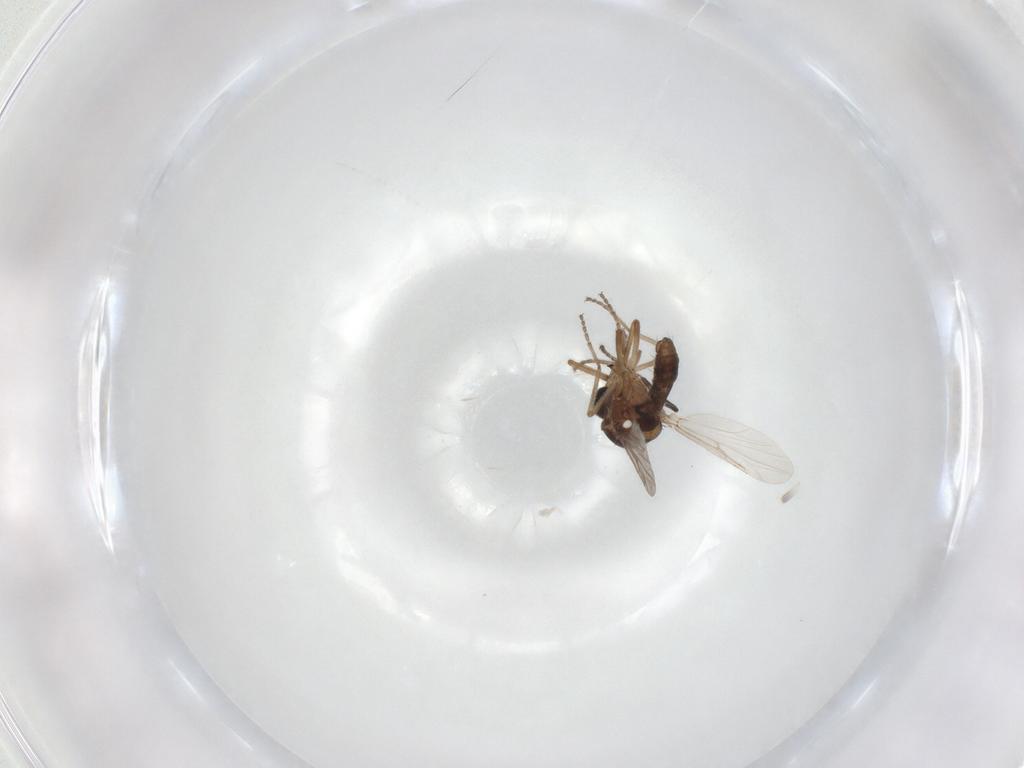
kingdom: Animalia
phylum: Arthropoda
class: Insecta
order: Diptera
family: Ceratopogonidae
